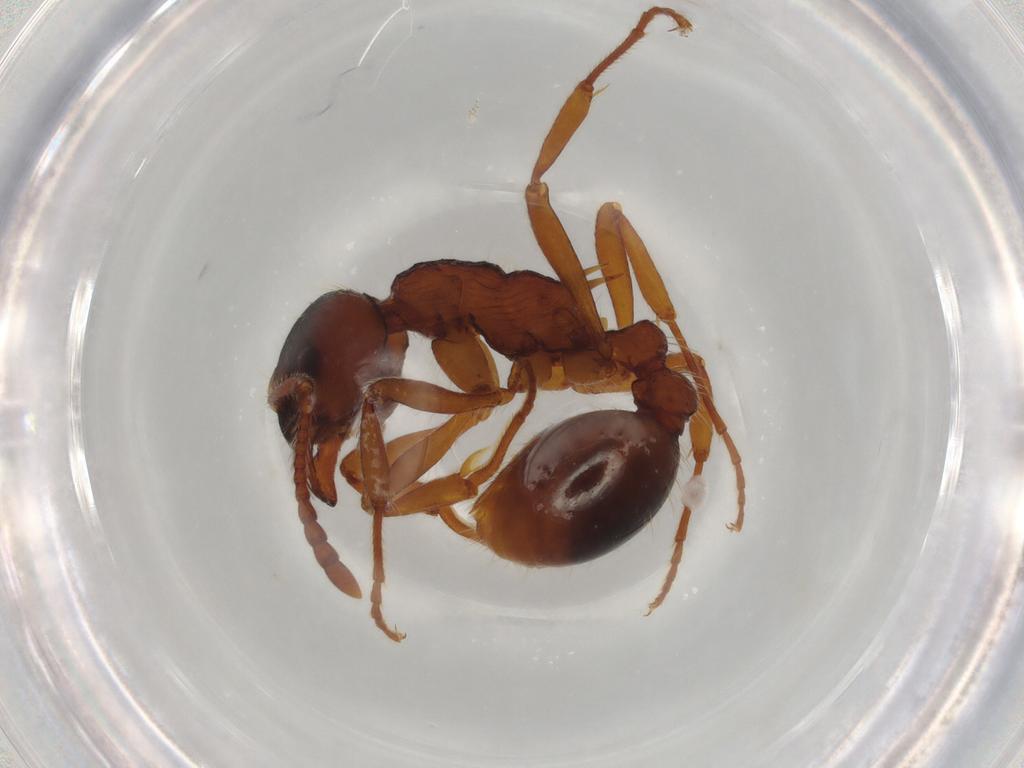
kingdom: Animalia
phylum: Arthropoda
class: Insecta
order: Hymenoptera
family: Formicidae
